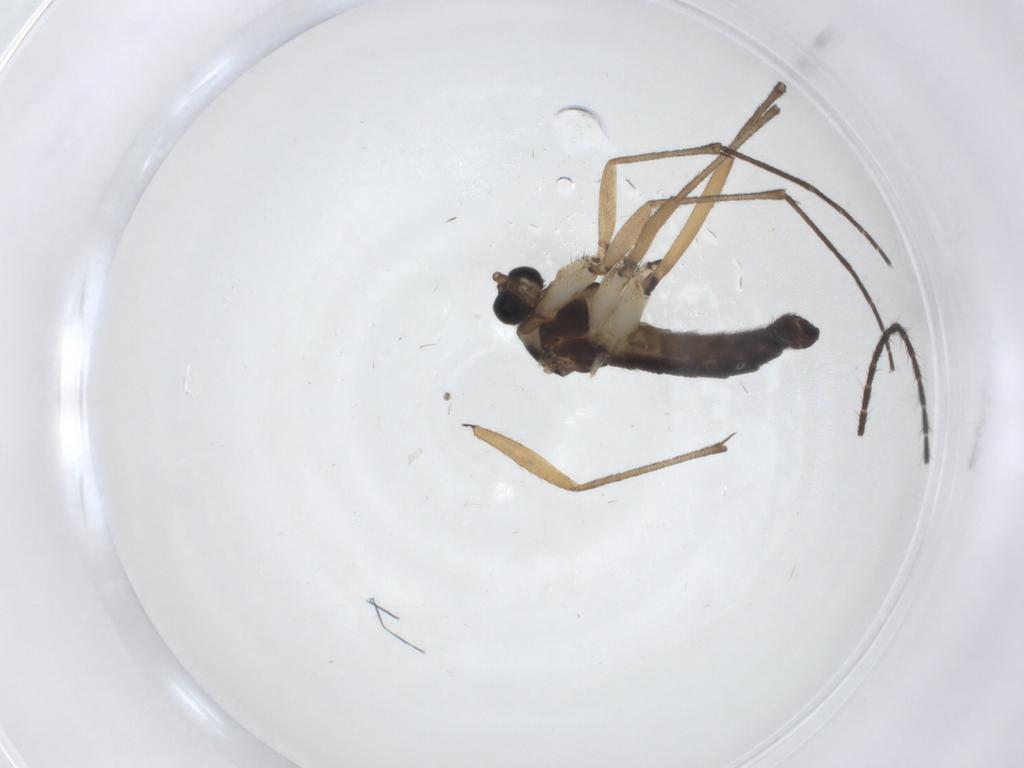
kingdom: Animalia
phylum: Arthropoda
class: Insecta
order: Diptera
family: Sciaridae
